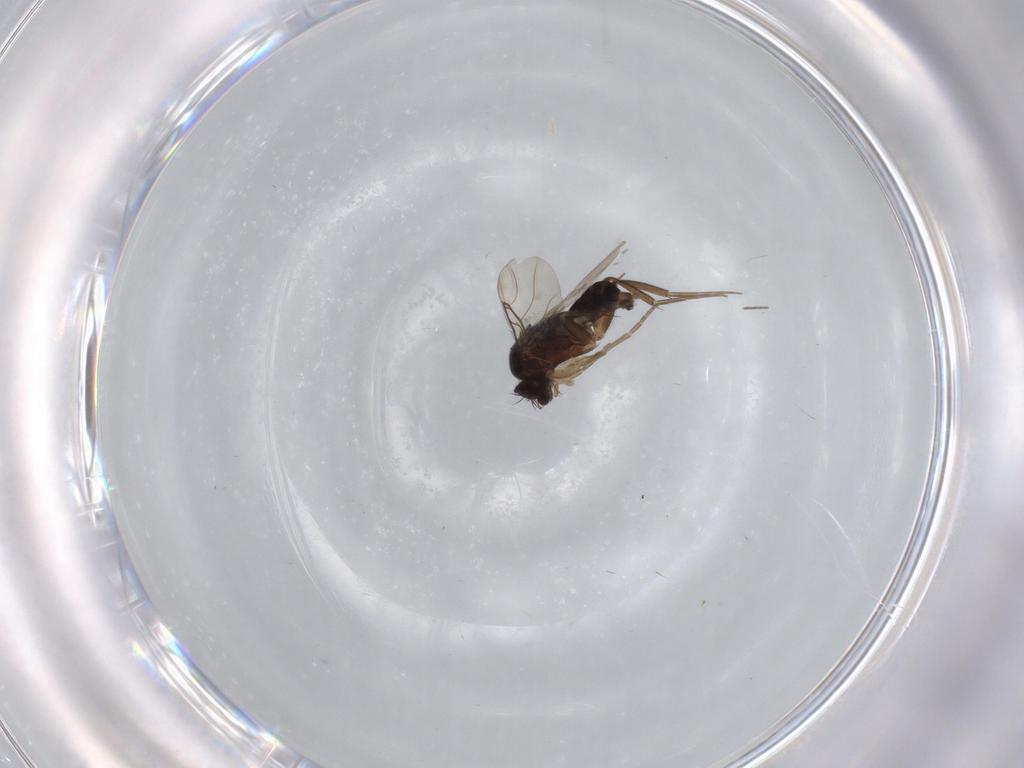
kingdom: Animalia
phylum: Arthropoda
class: Insecta
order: Diptera
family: Phoridae
